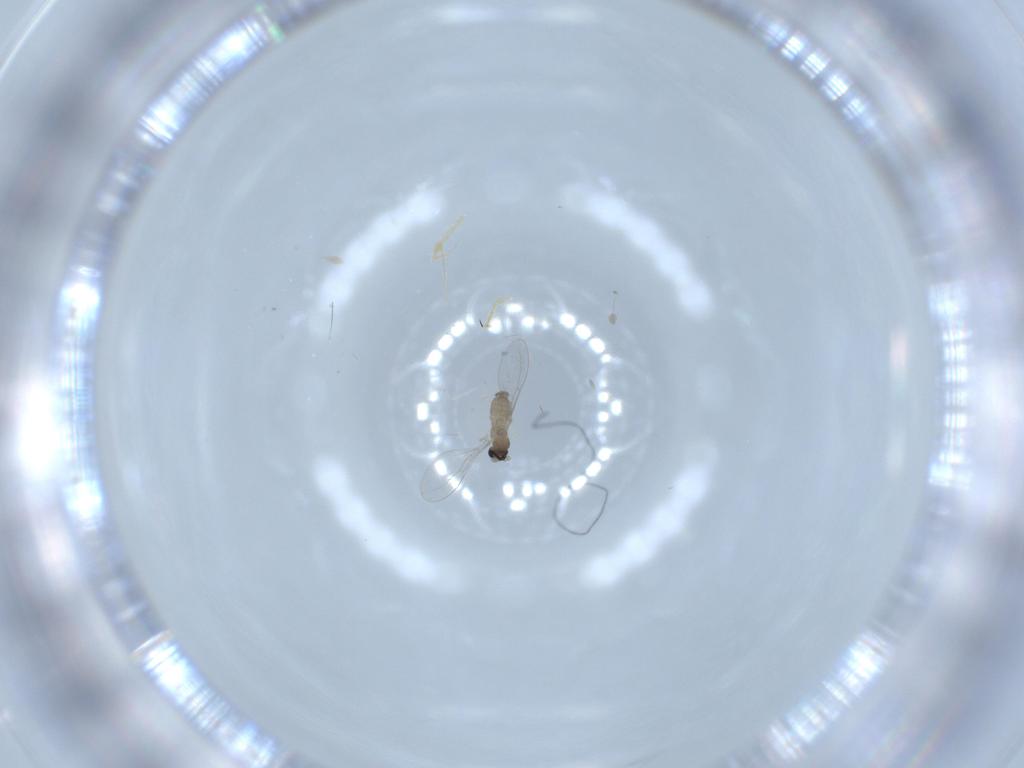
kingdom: Animalia
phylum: Arthropoda
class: Insecta
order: Diptera
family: Cecidomyiidae
